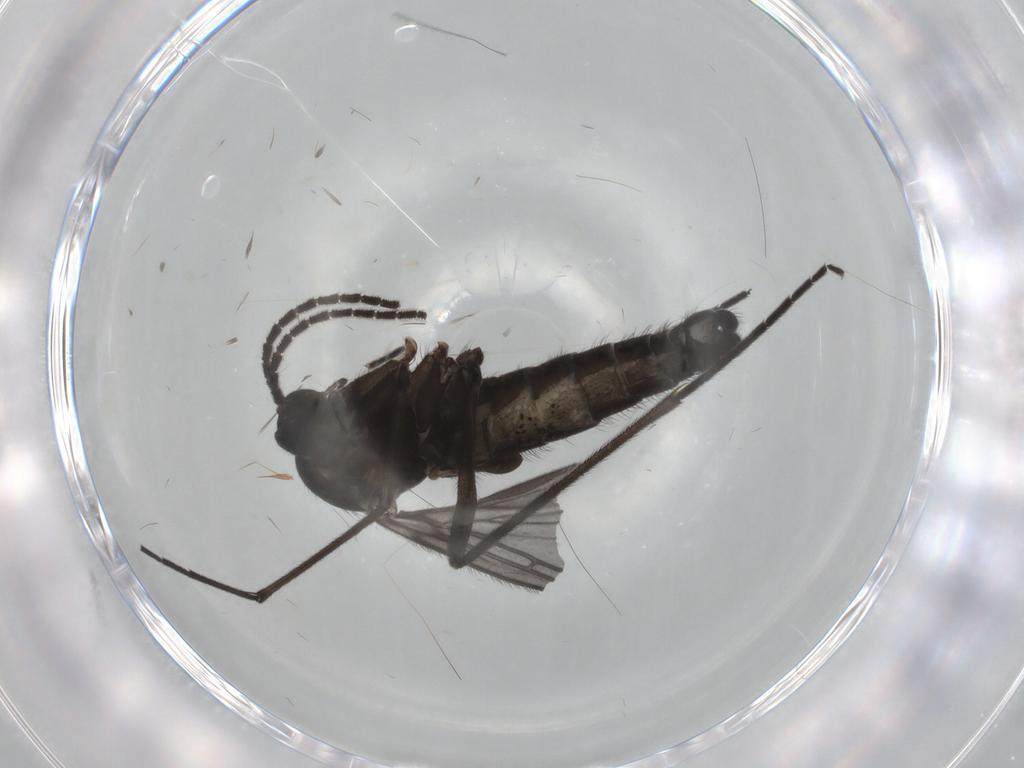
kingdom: Animalia
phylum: Arthropoda
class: Insecta
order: Diptera
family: Sciaridae
